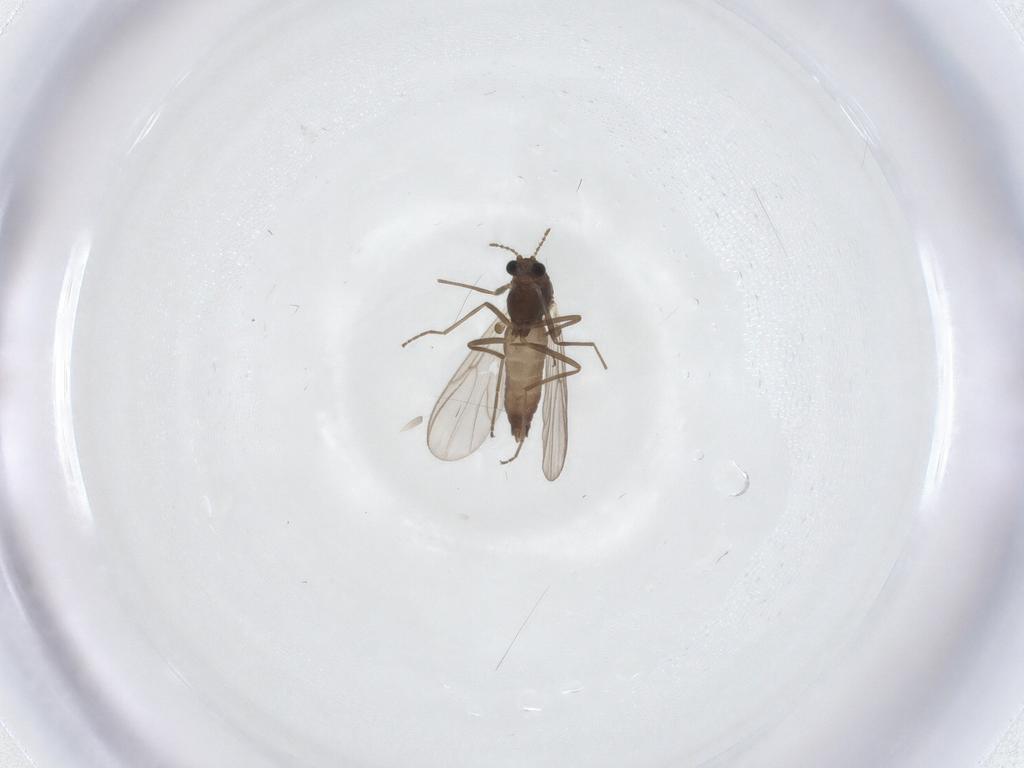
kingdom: Animalia
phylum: Arthropoda
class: Insecta
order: Diptera
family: Chironomidae
